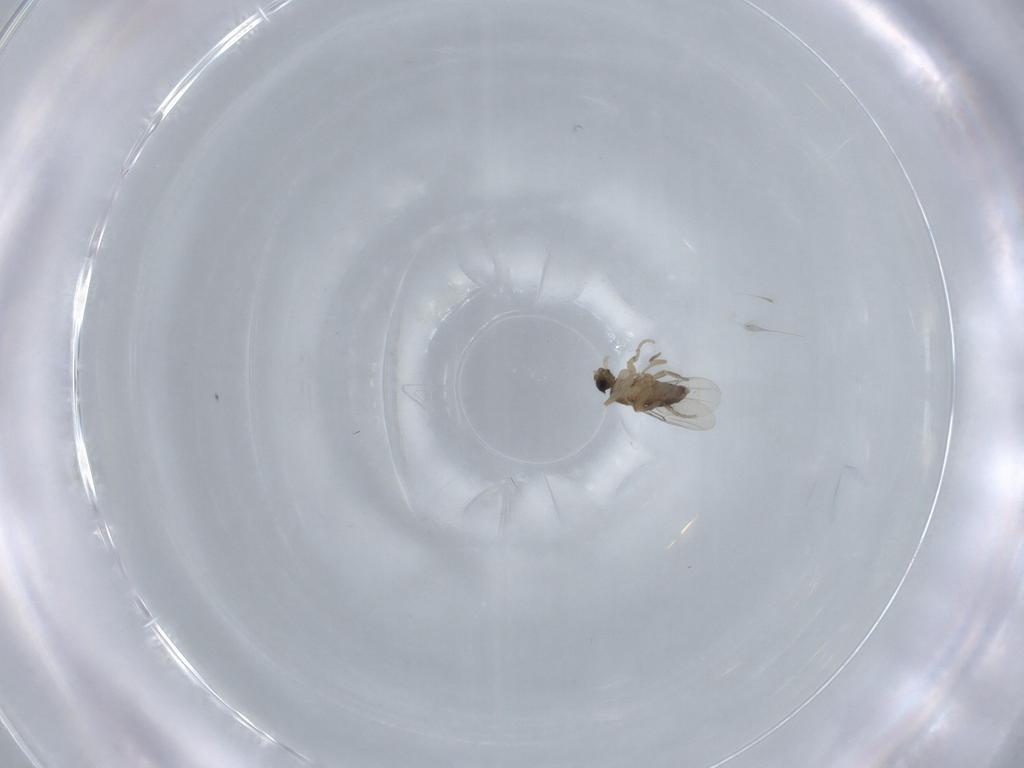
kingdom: Animalia
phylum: Arthropoda
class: Insecta
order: Diptera
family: Phoridae
